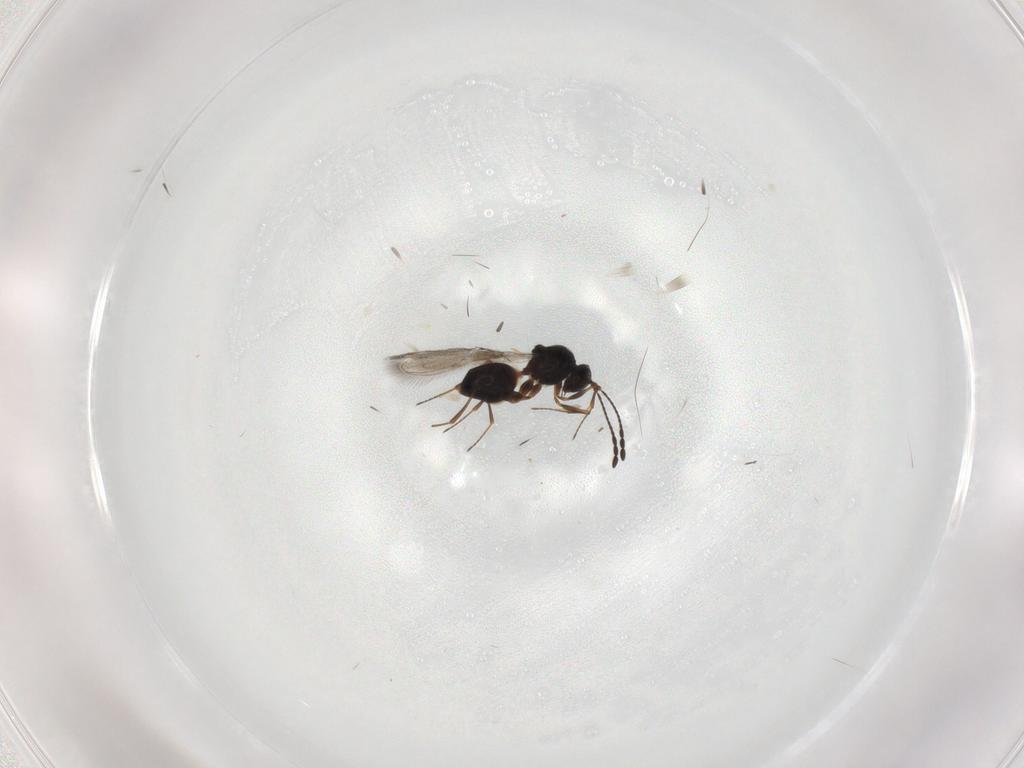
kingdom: Animalia
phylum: Arthropoda
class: Insecta
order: Hymenoptera
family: Figitidae
